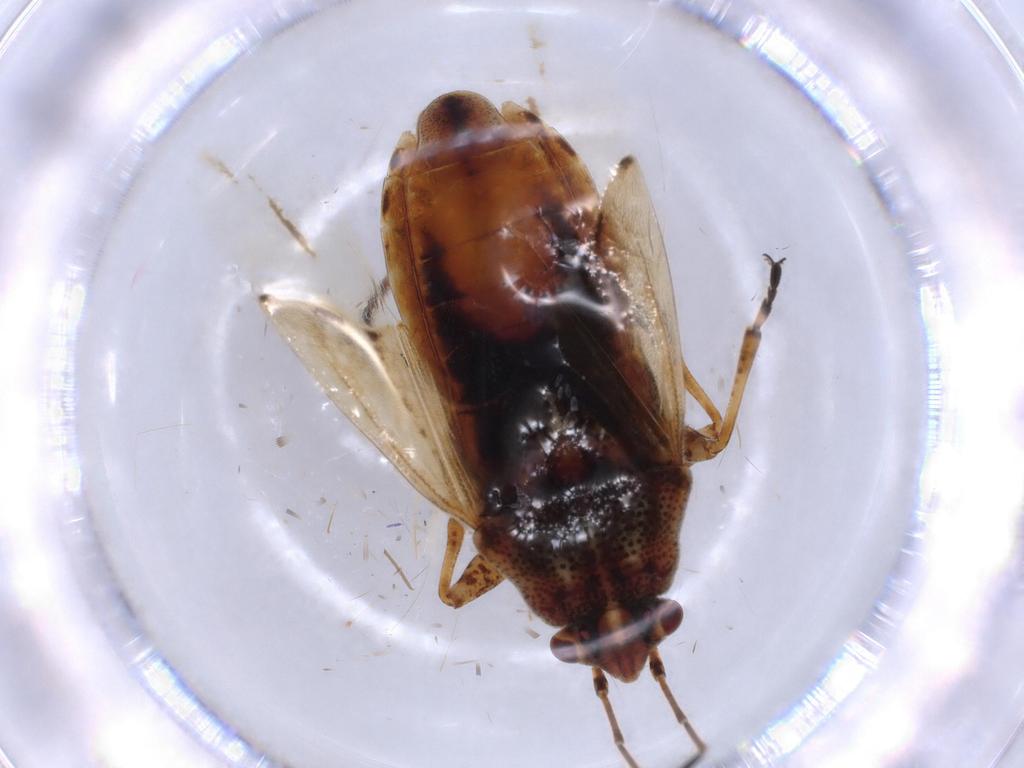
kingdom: Animalia
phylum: Arthropoda
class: Insecta
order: Hemiptera
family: Lygaeidae
